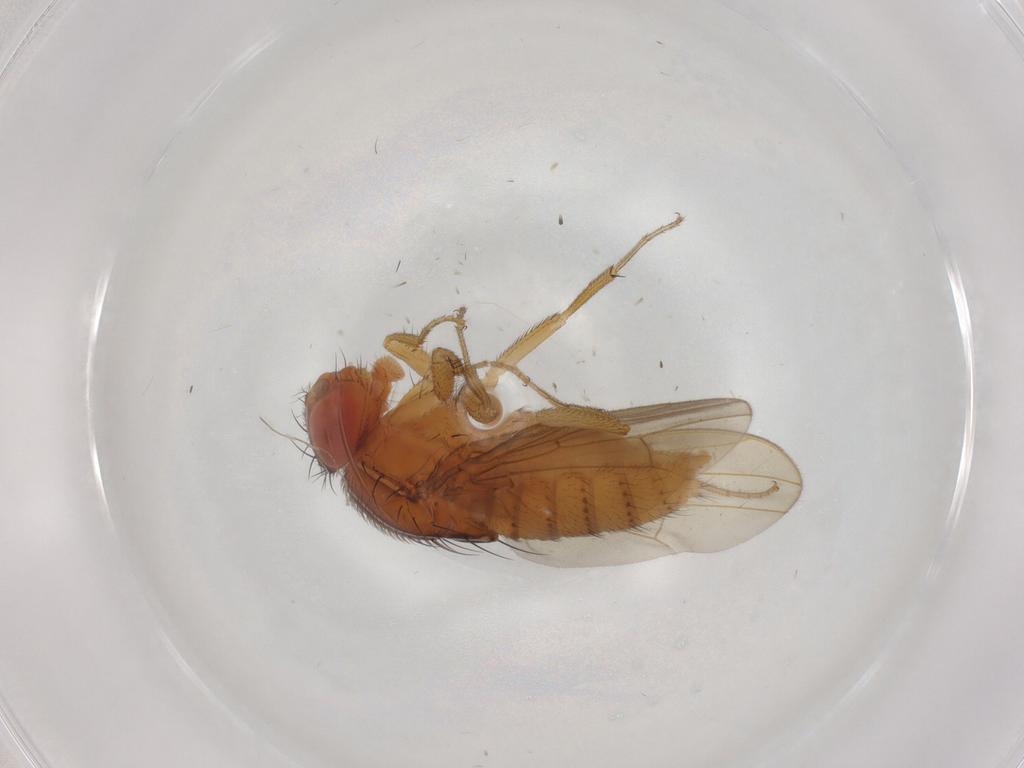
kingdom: Animalia
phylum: Arthropoda
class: Insecta
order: Diptera
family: Drosophilidae
